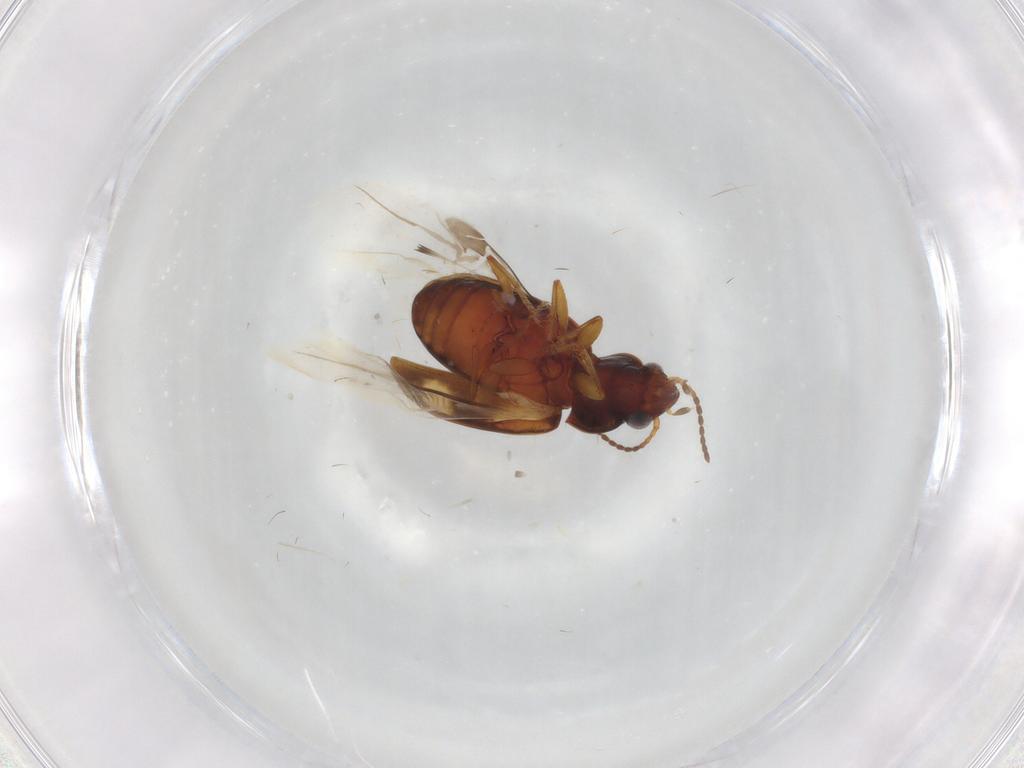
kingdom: Animalia
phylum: Arthropoda
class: Insecta
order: Coleoptera
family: Carabidae
